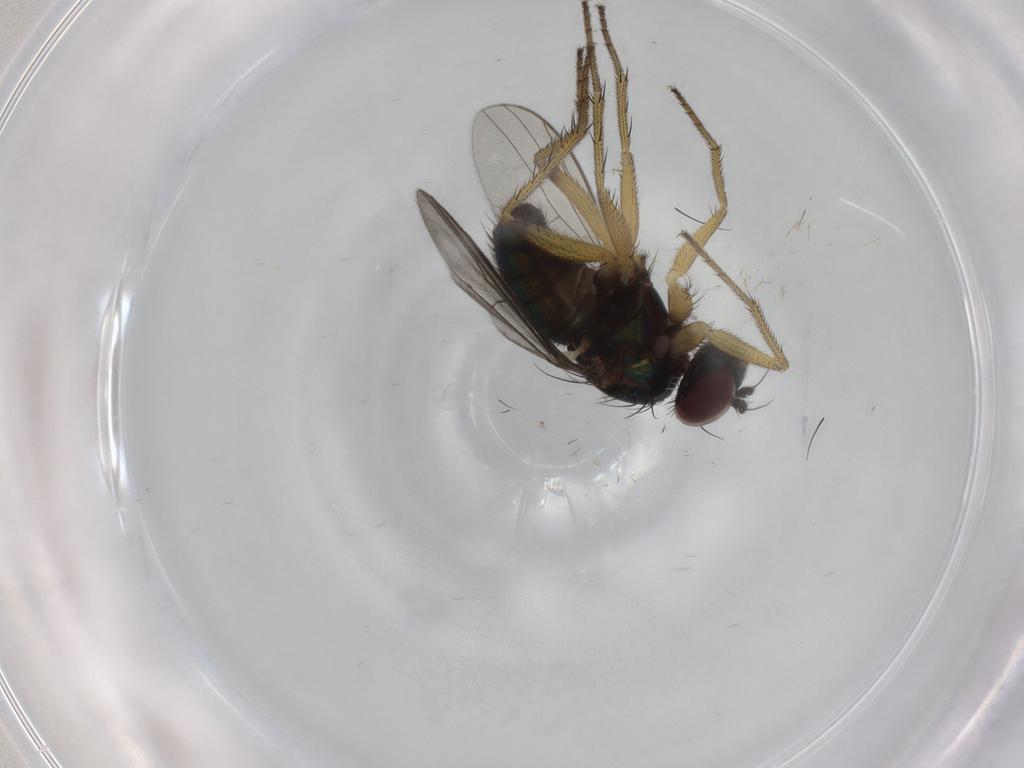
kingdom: Animalia
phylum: Arthropoda
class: Insecta
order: Diptera
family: Dolichopodidae
